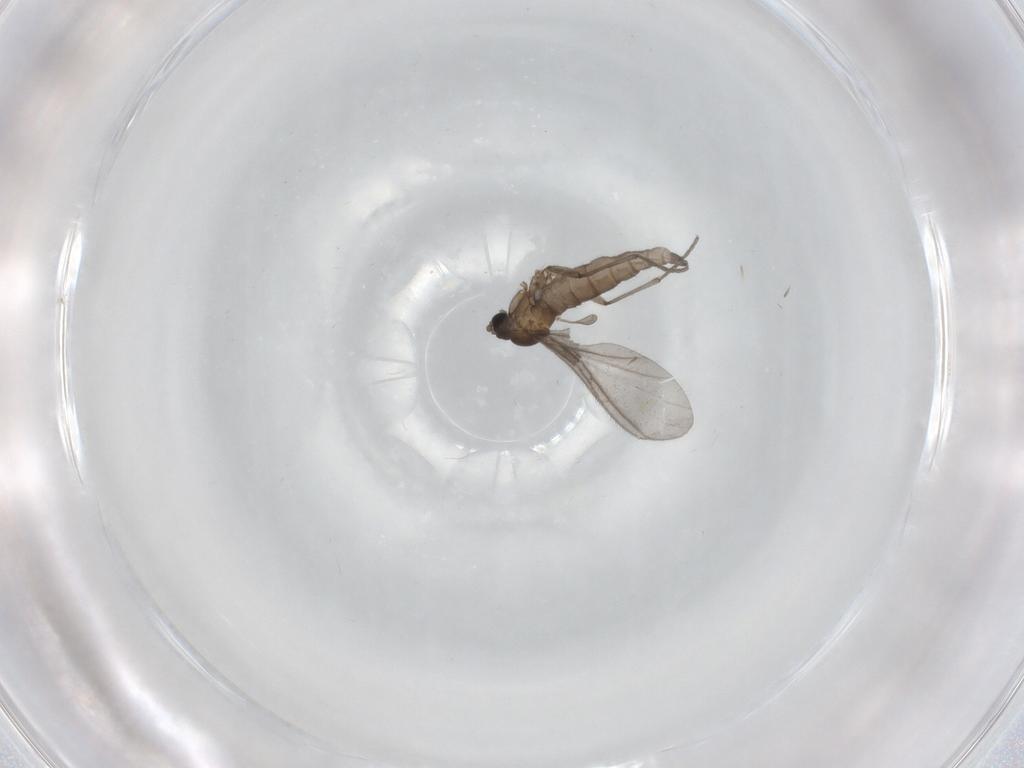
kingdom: Animalia
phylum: Arthropoda
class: Insecta
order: Diptera
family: Sciaridae
